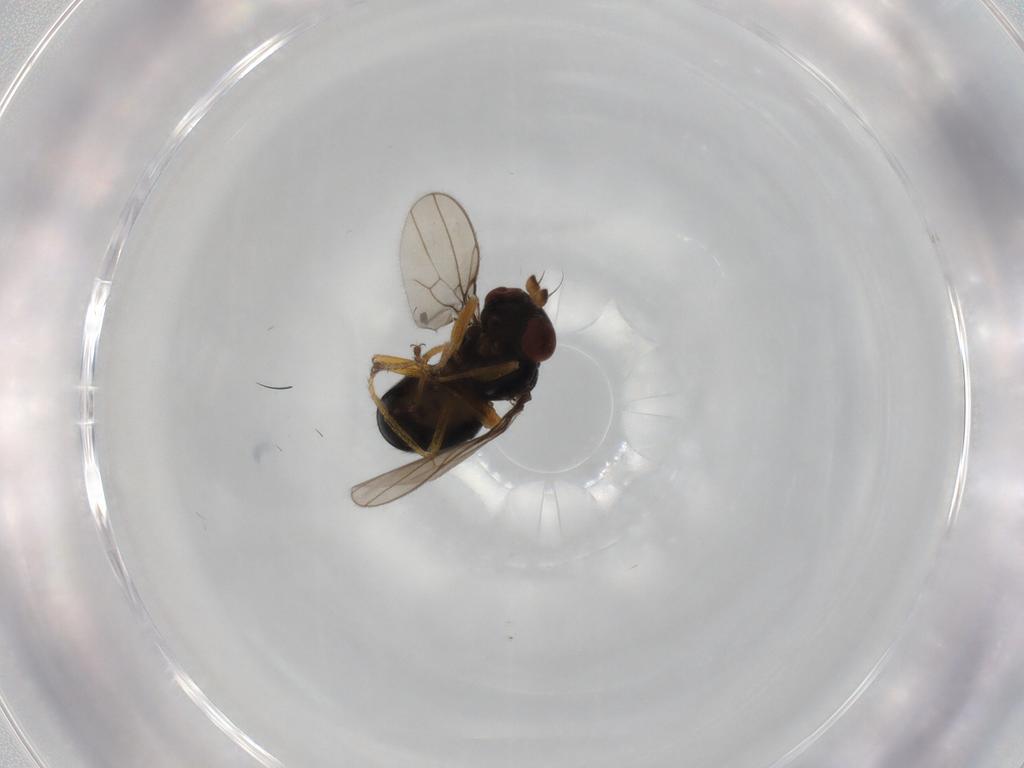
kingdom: Animalia
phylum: Arthropoda
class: Insecta
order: Diptera
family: Ephydridae
